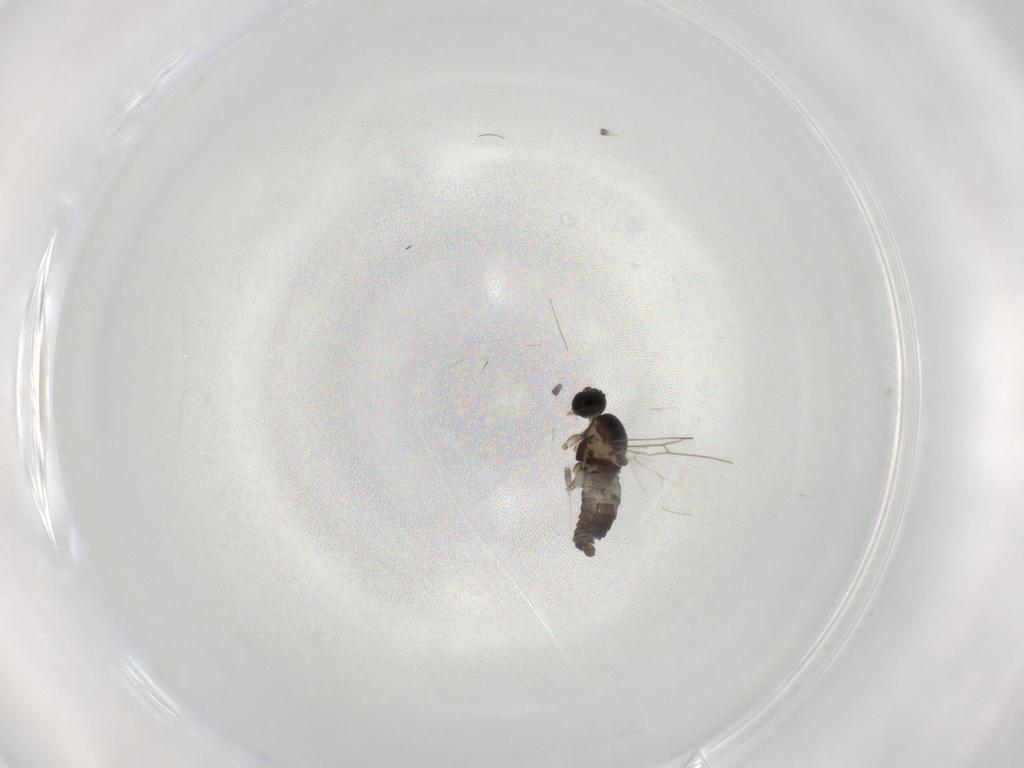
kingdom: Animalia
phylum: Arthropoda
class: Insecta
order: Diptera
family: Cecidomyiidae
